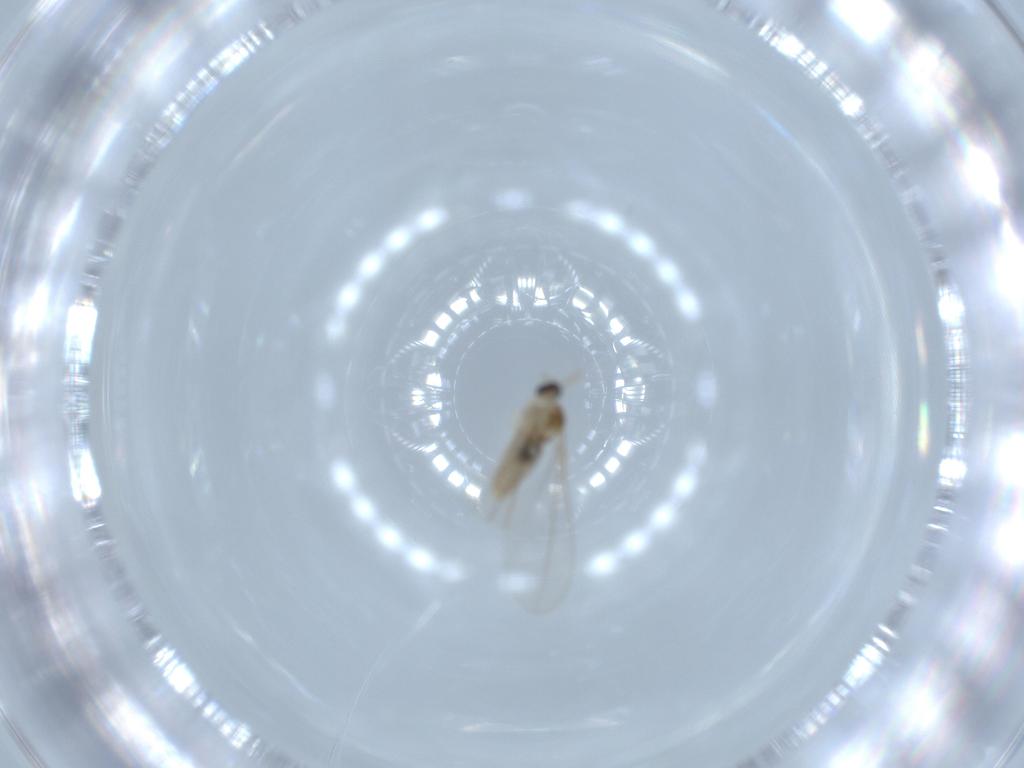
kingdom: Animalia
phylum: Arthropoda
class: Insecta
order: Diptera
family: Cecidomyiidae
